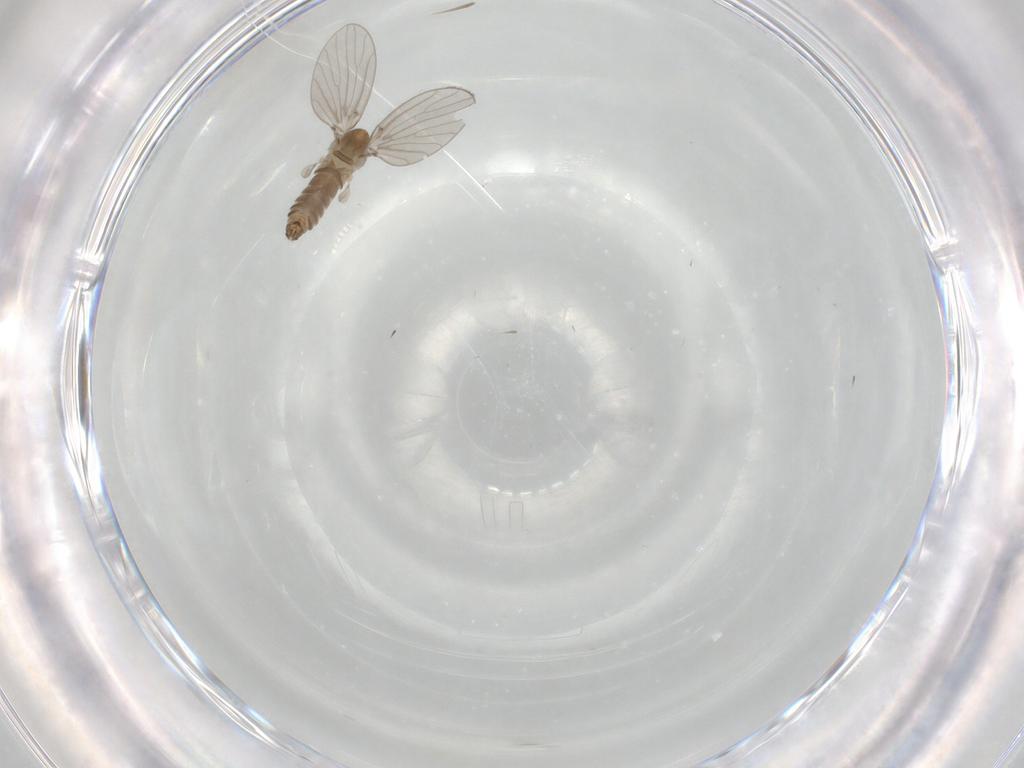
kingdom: Animalia
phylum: Arthropoda
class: Insecta
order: Diptera
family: Psychodidae
